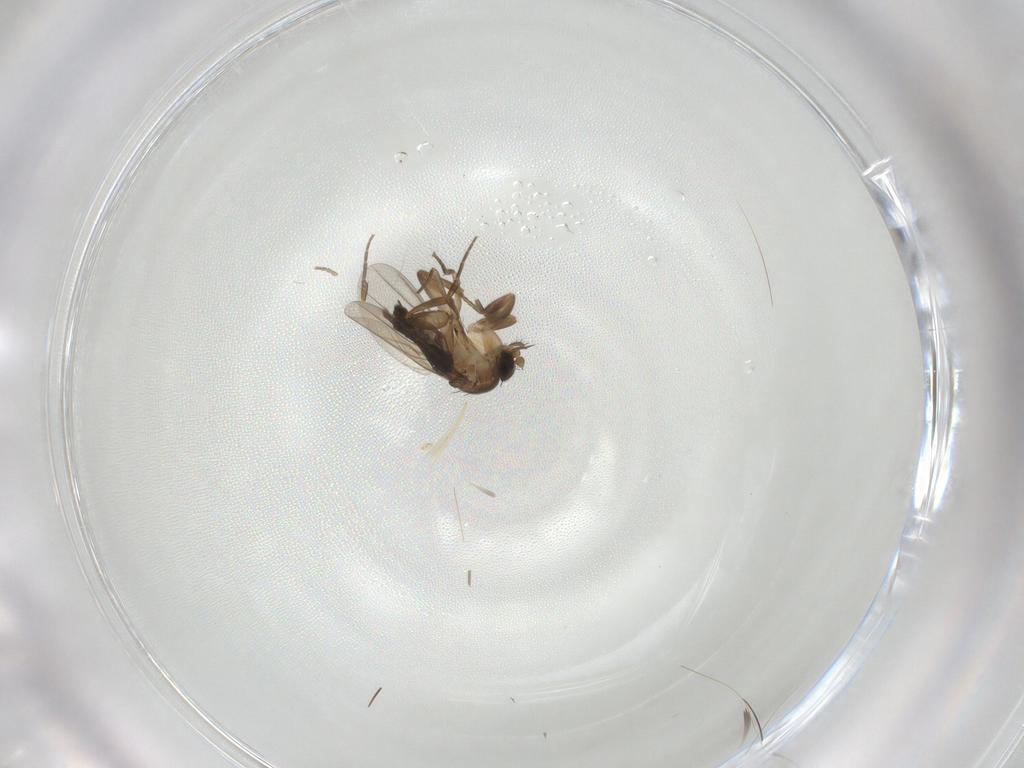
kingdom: Animalia
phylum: Arthropoda
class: Insecta
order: Diptera
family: Phoridae
